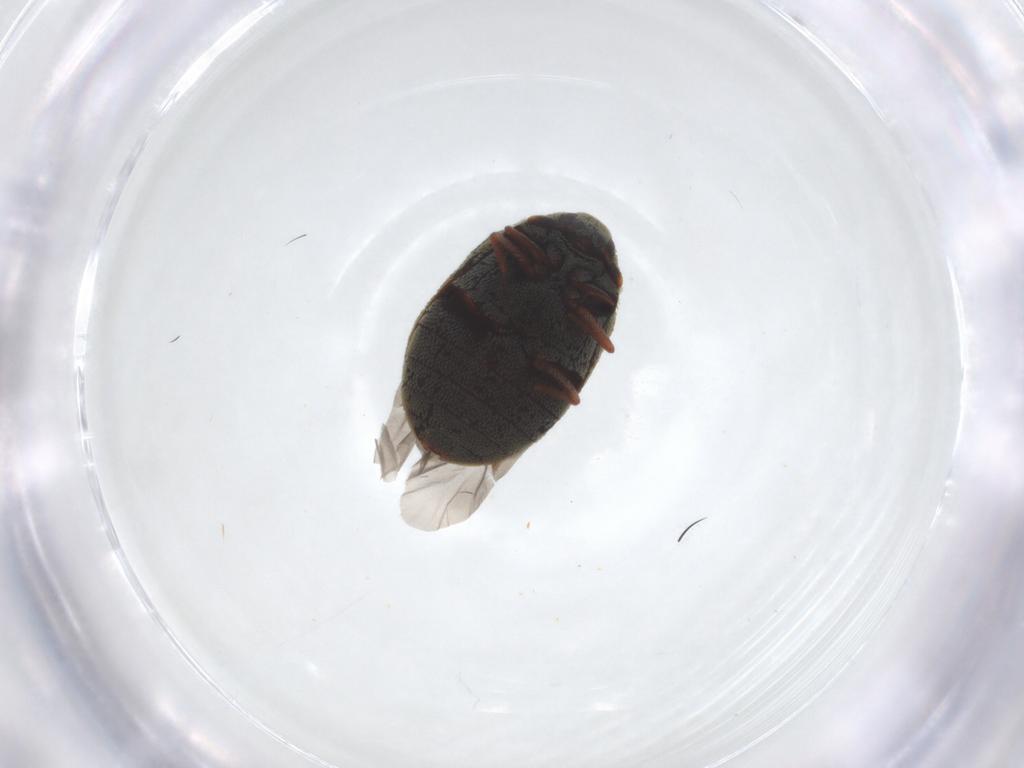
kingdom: Animalia
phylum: Arthropoda
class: Insecta
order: Coleoptera
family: Dermestidae
